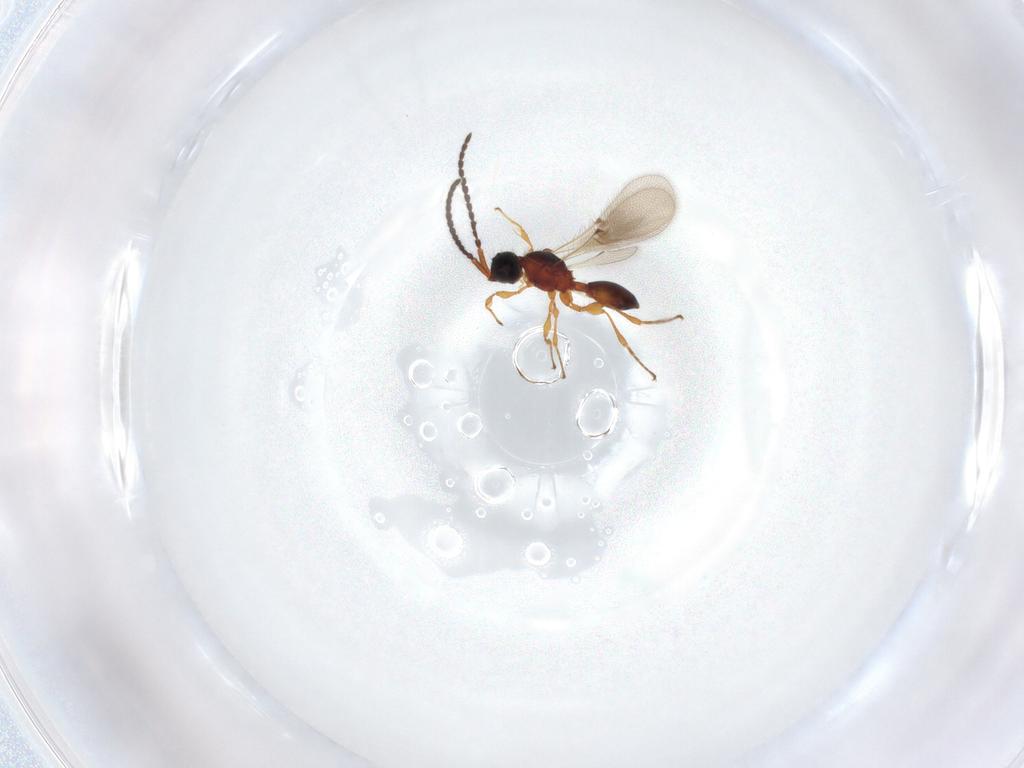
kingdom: Animalia
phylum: Arthropoda
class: Insecta
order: Hymenoptera
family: Diapriidae
